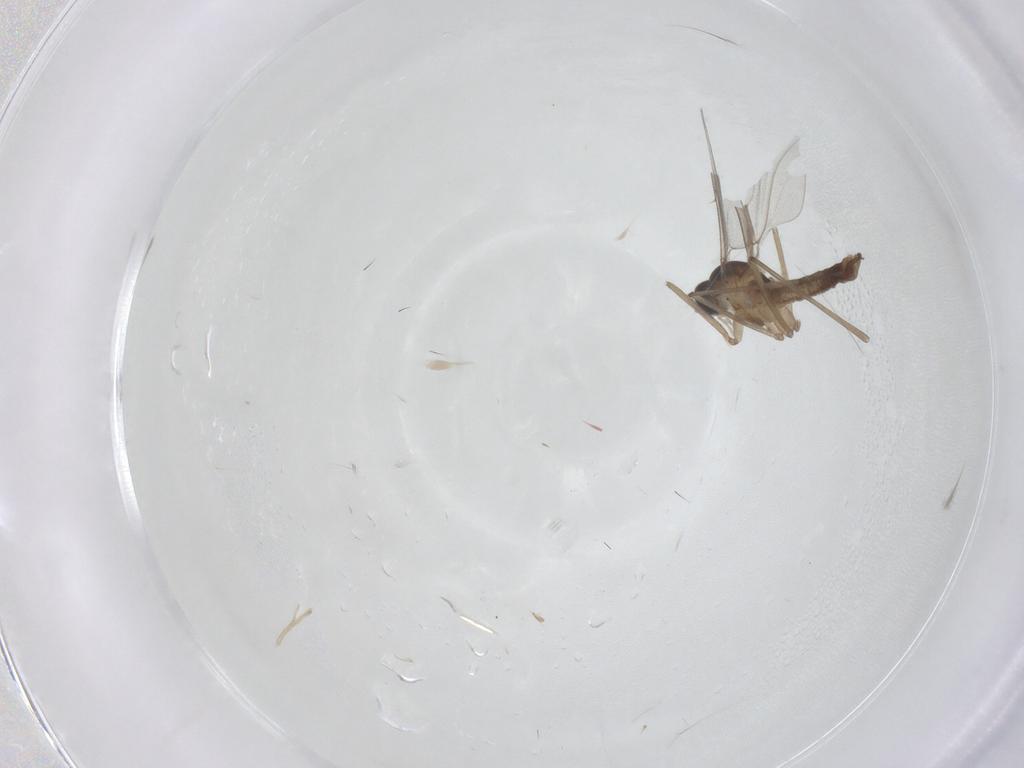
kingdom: Animalia
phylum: Arthropoda
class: Insecta
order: Diptera
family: Cecidomyiidae
